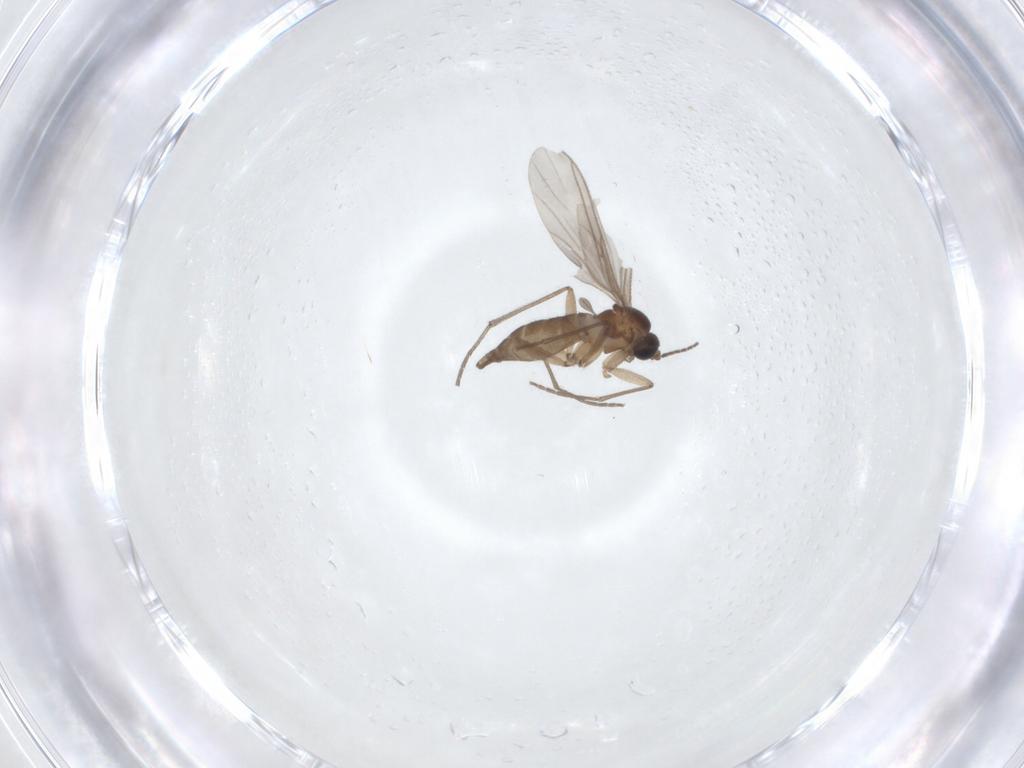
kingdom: Animalia
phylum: Arthropoda
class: Insecta
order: Diptera
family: Sciaridae
